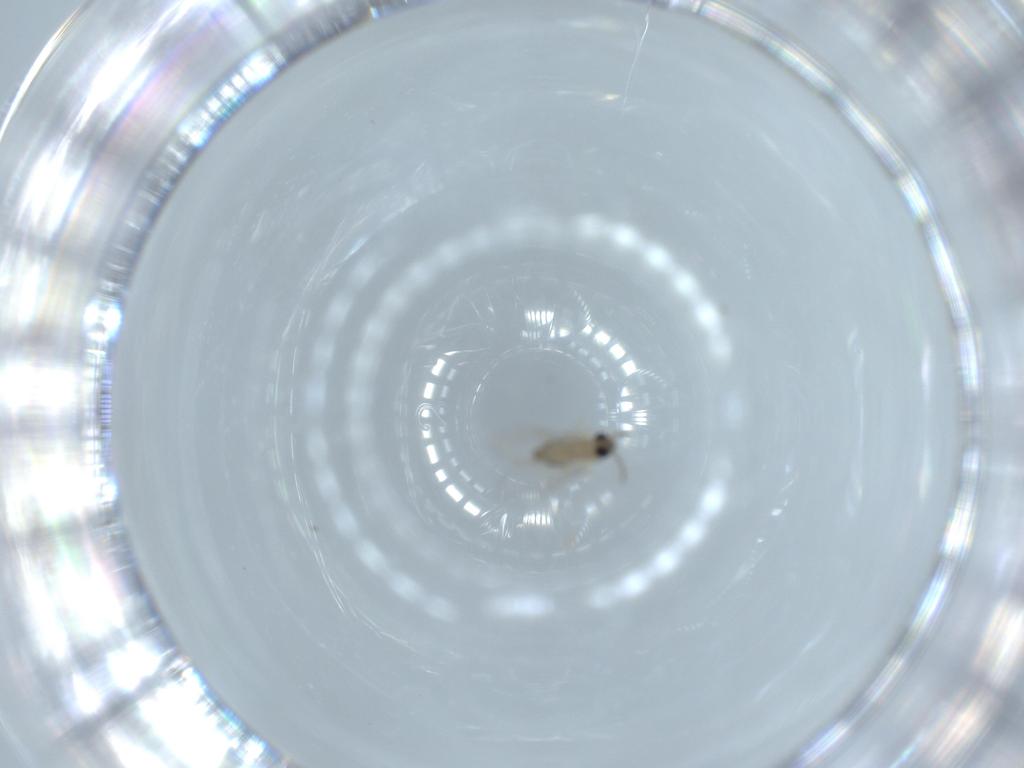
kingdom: Animalia
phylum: Arthropoda
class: Insecta
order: Diptera
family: Cecidomyiidae
